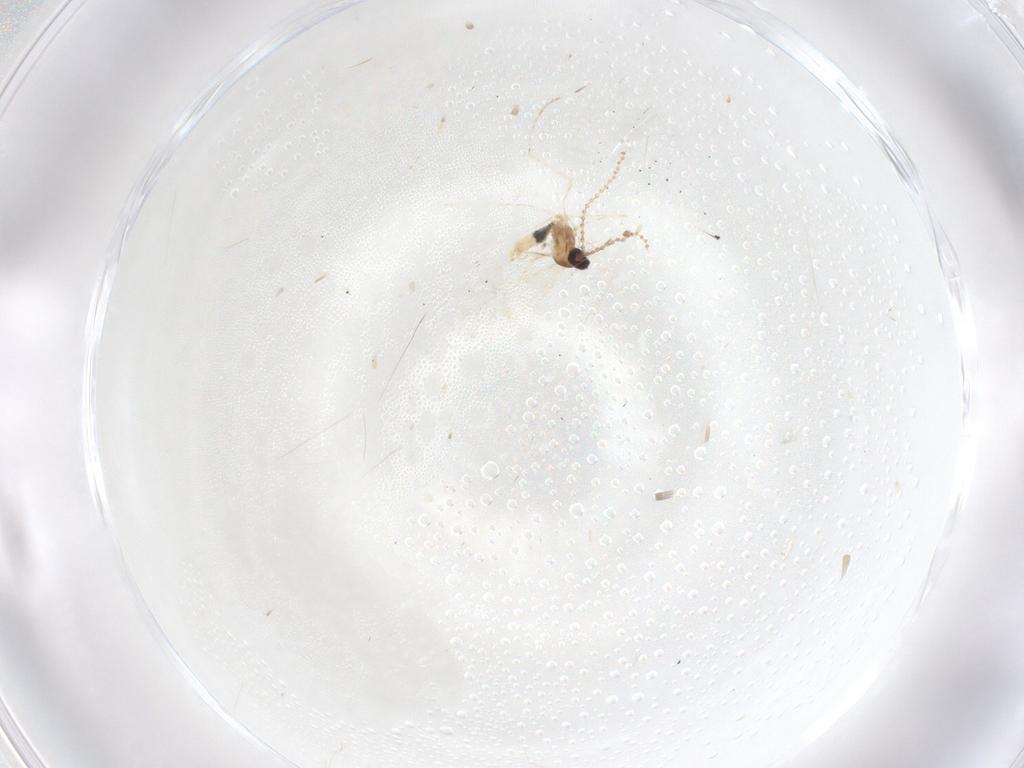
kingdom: Animalia
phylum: Arthropoda
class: Insecta
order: Diptera
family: Cecidomyiidae
